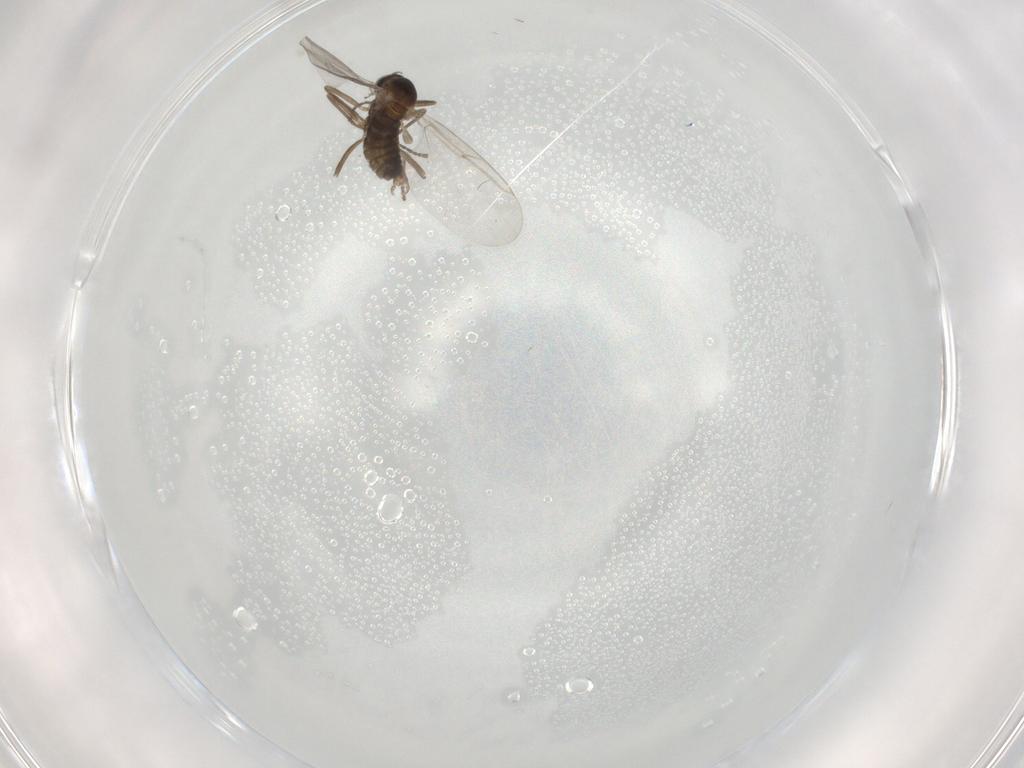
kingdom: Animalia
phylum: Arthropoda
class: Insecta
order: Diptera
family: Cecidomyiidae
